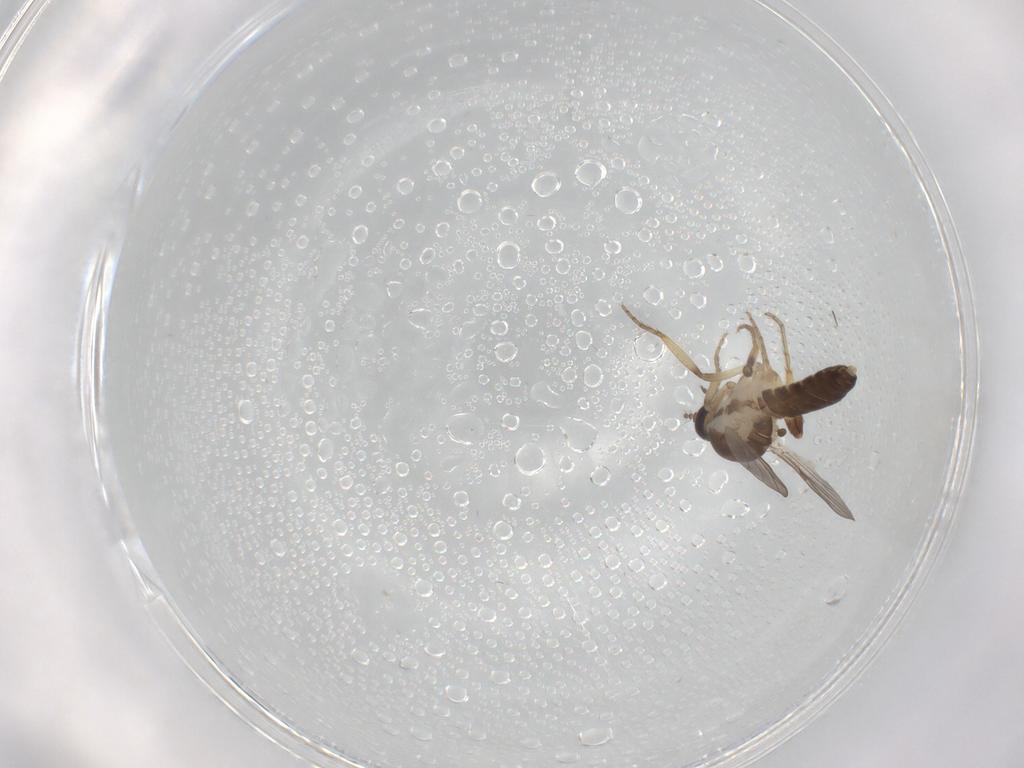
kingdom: Animalia
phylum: Arthropoda
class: Insecta
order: Diptera
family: Ceratopogonidae
